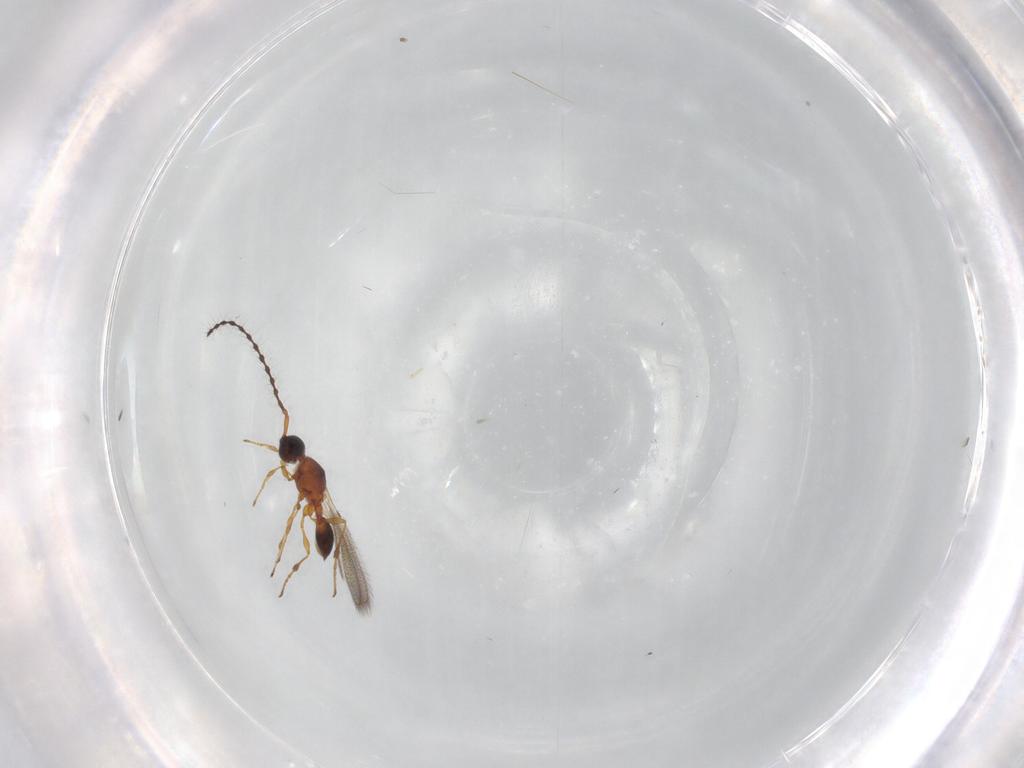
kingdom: Animalia
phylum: Arthropoda
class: Insecta
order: Hymenoptera
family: Diapriidae
